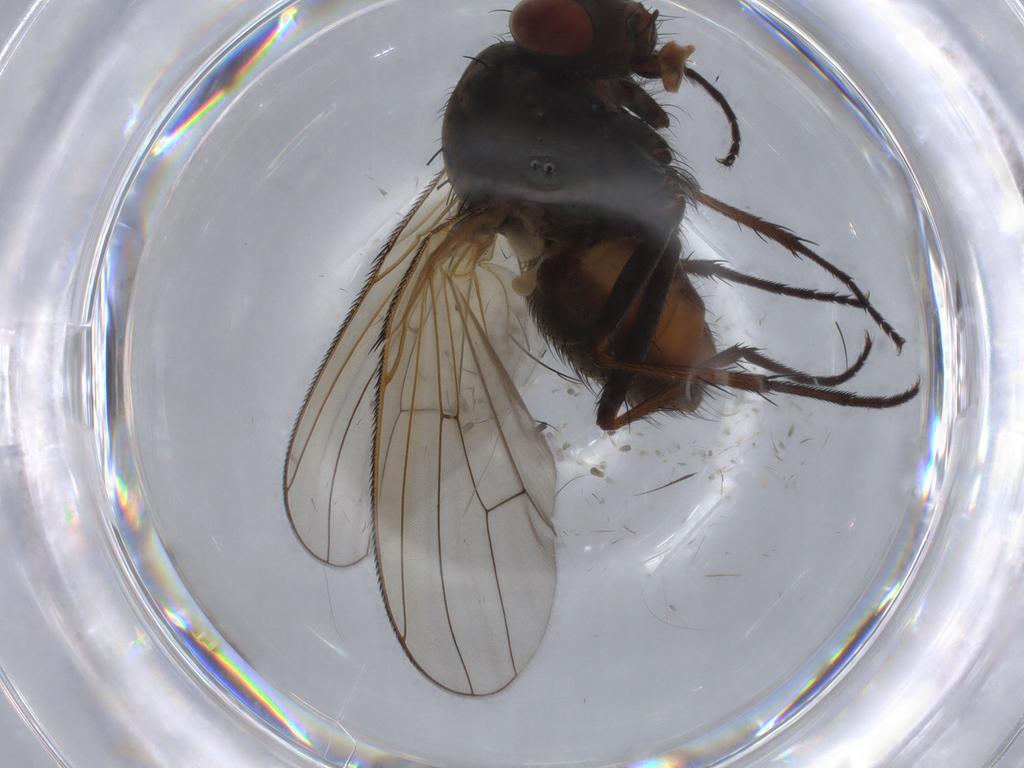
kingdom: Animalia
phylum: Arthropoda
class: Insecta
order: Diptera
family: Anthomyiidae
